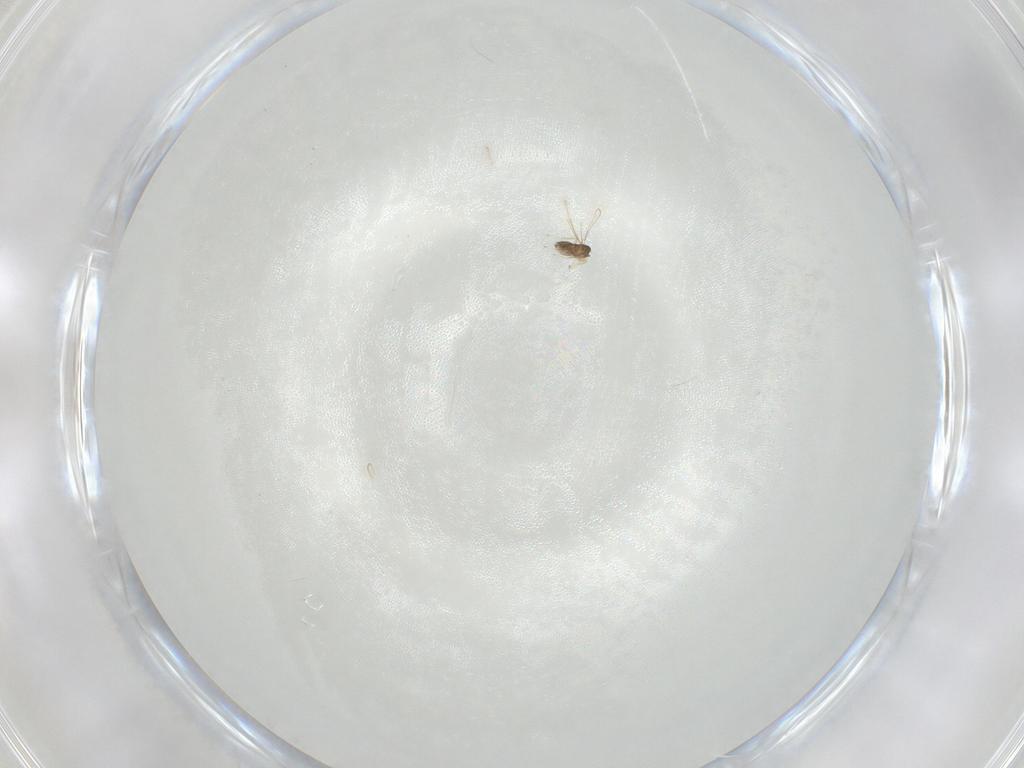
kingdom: Animalia
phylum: Arthropoda
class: Insecta
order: Hymenoptera
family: Mymaridae
